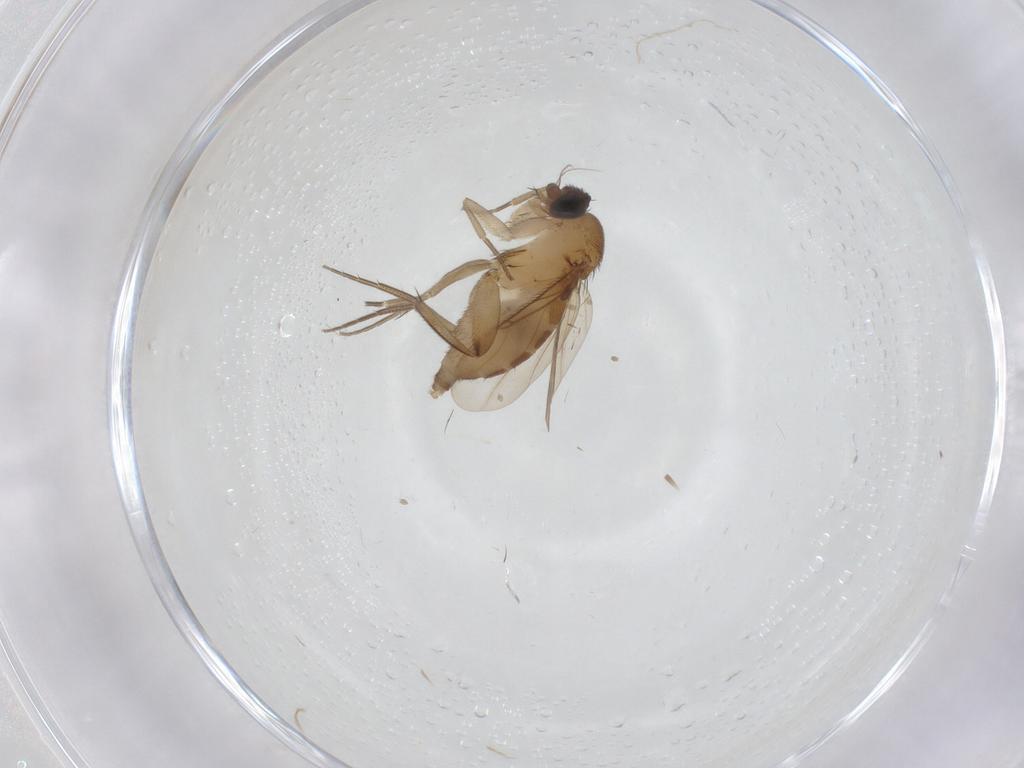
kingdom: Animalia
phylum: Arthropoda
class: Insecta
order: Diptera
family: Phoridae
